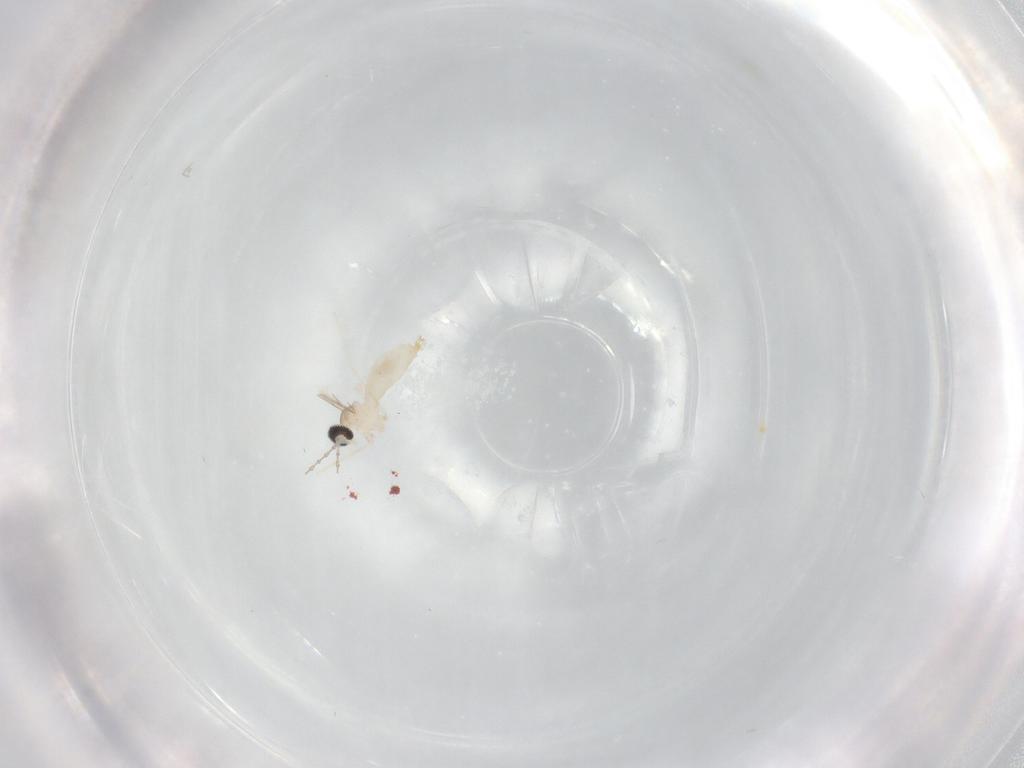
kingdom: Animalia
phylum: Arthropoda
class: Insecta
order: Diptera
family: Cecidomyiidae
